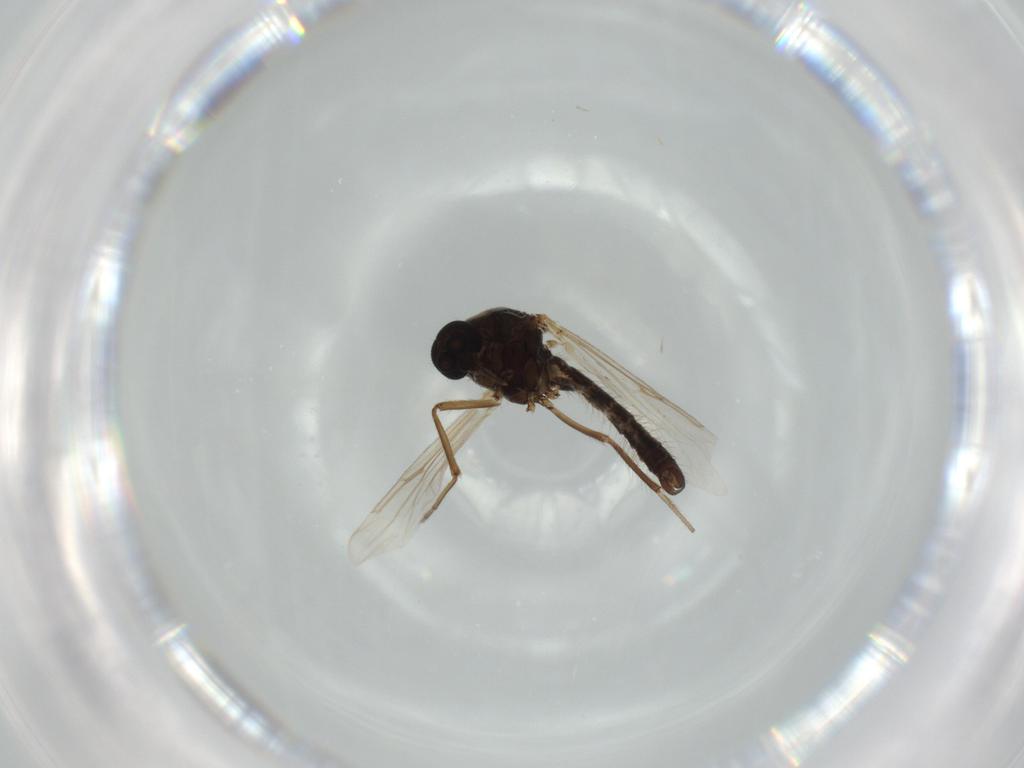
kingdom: Animalia
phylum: Arthropoda
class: Insecta
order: Diptera
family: Ceratopogonidae
